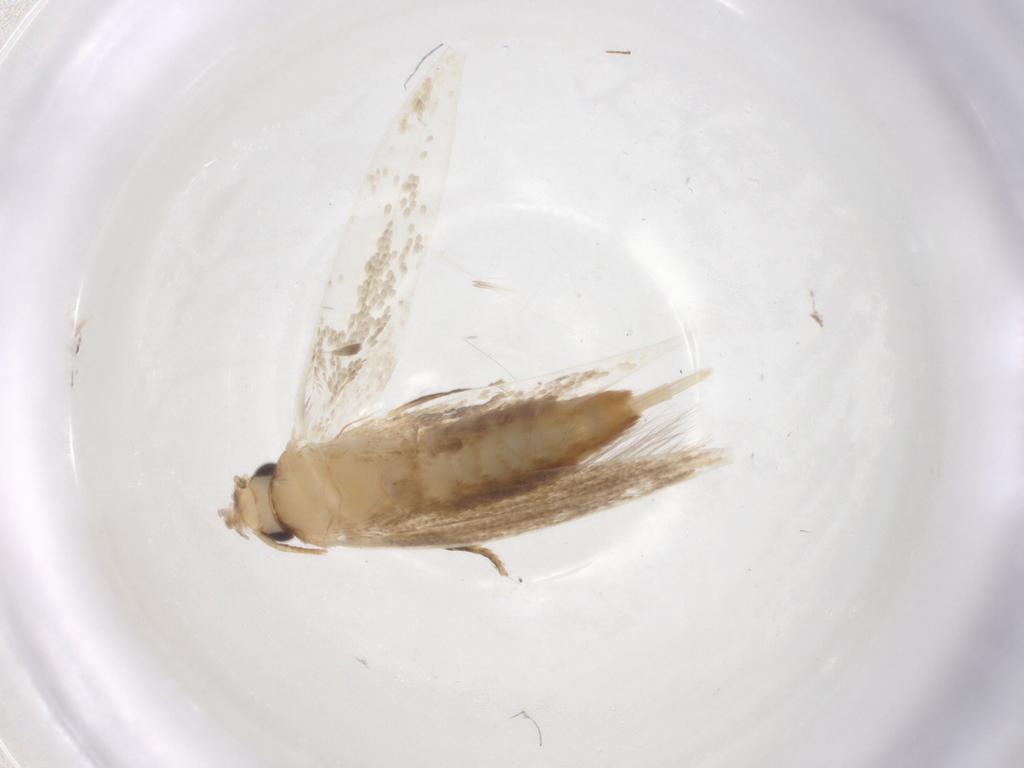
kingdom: Animalia
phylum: Arthropoda
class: Insecta
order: Lepidoptera
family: Tineidae
